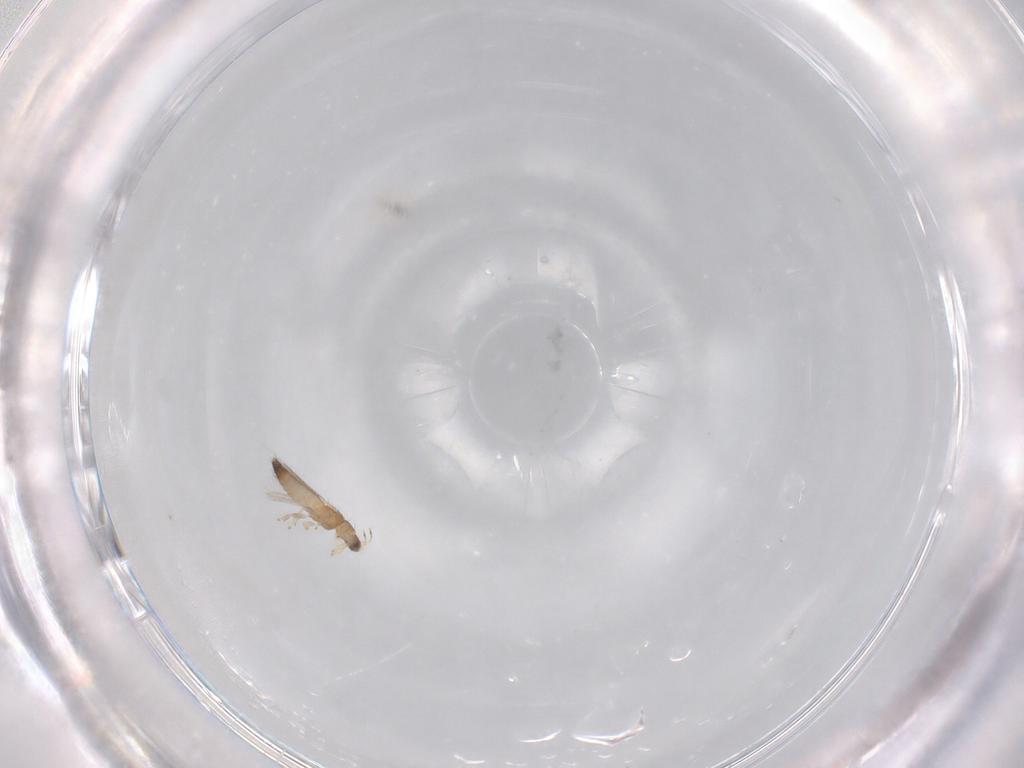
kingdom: Animalia
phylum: Arthropoda
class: Insecta
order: Thysanoptera
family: Thripidae
